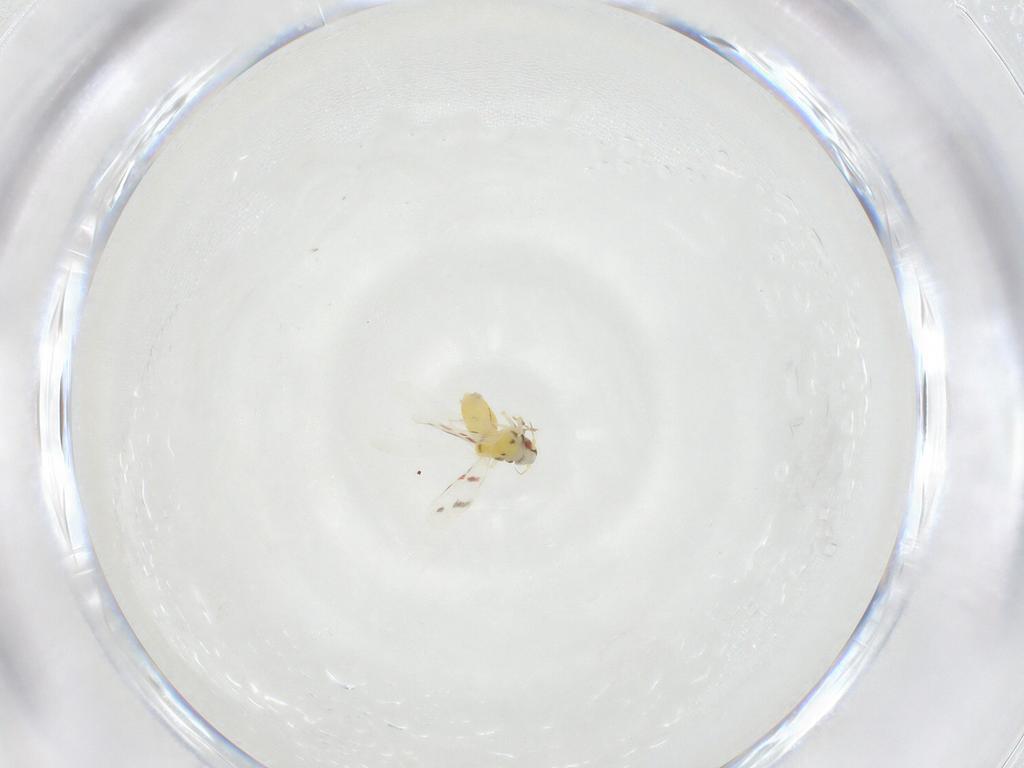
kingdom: Animalia
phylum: Arthropoda
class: Insecta
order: Hemiptera
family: Aleyrodidae
